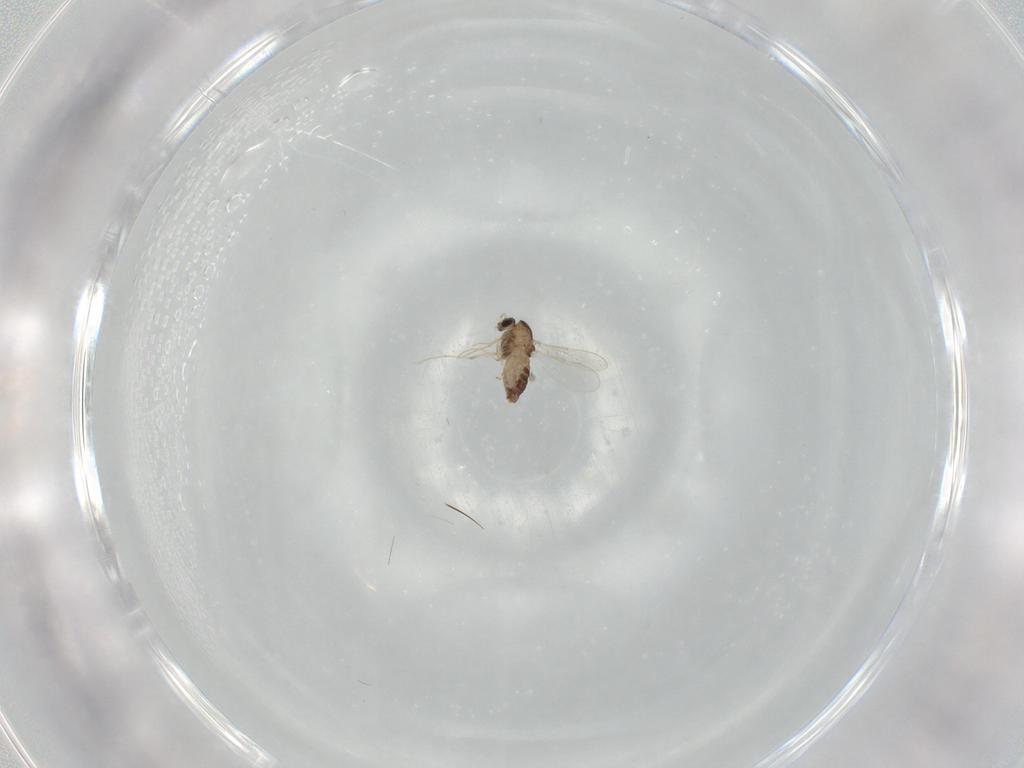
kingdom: Animalia
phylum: Arthropoda
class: Insecta
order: Diptera
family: Chironomidae
